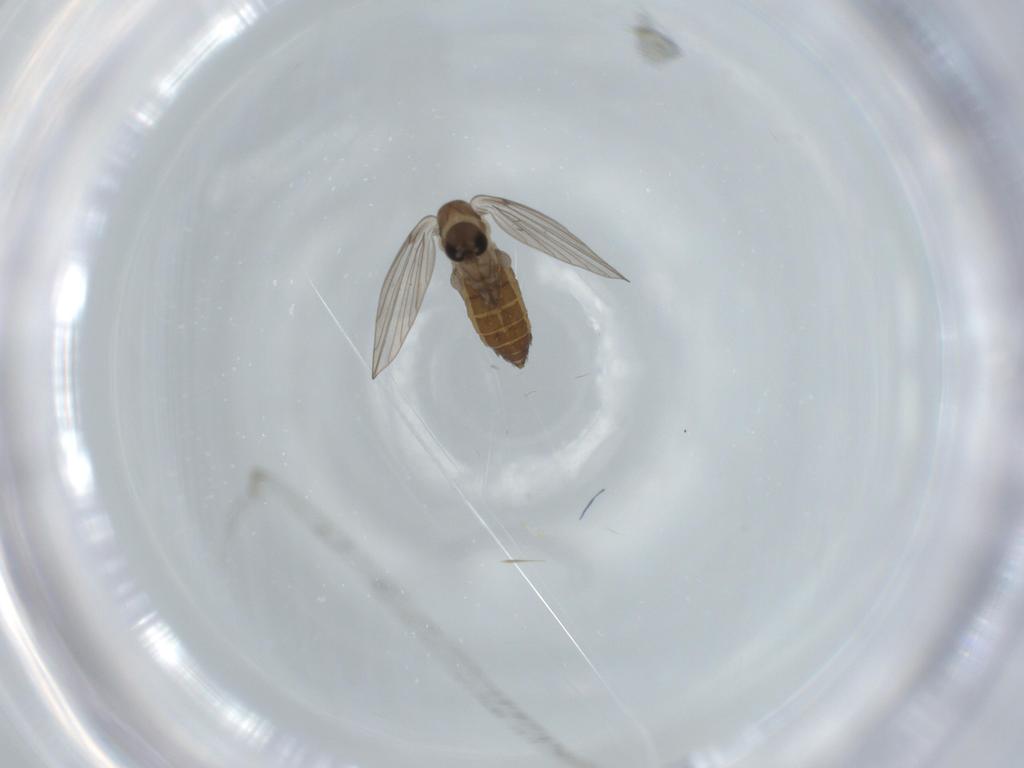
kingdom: Animalia
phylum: Arthropoda
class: Insecta
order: Diptera
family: Psychodidae
